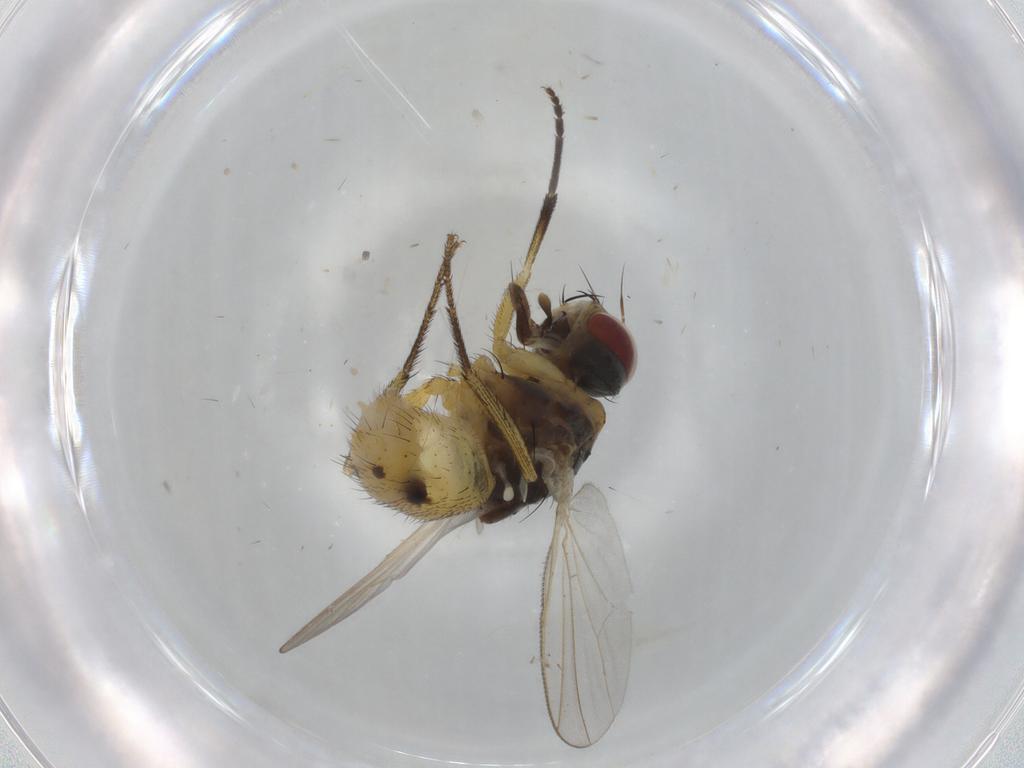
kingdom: Animalia
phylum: Arthropoda
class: Insecta
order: Diptera
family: Muscidae
